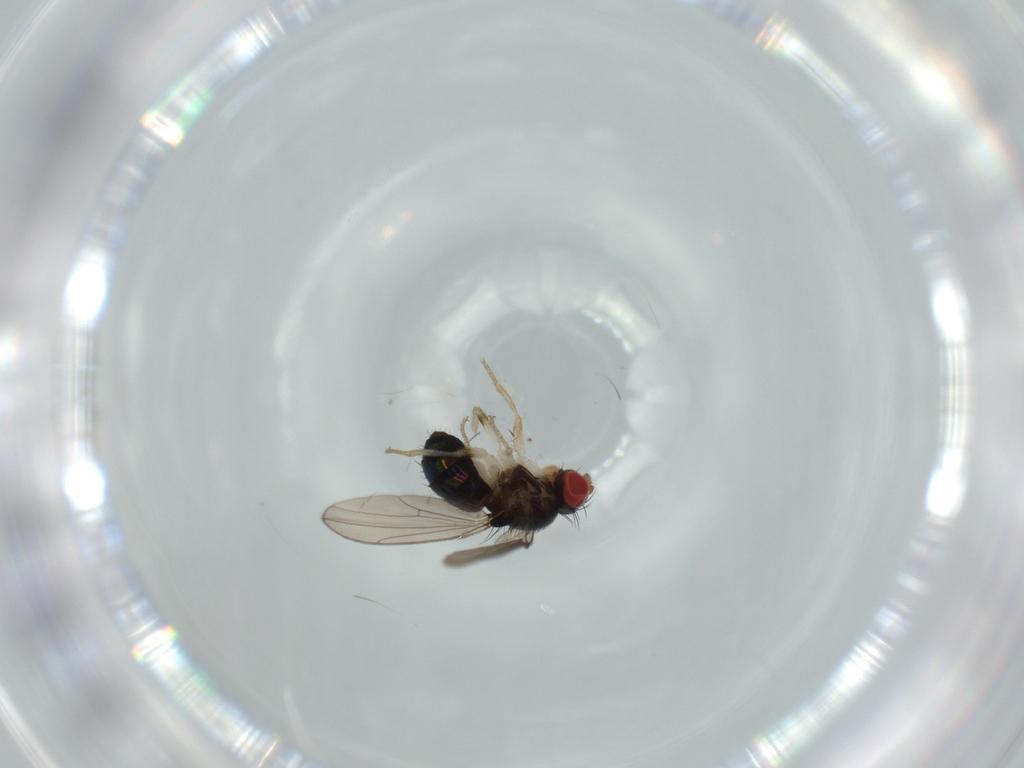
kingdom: Animalia
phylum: Arthropoda
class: Insecta
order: Diptera
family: Drosophilidae
